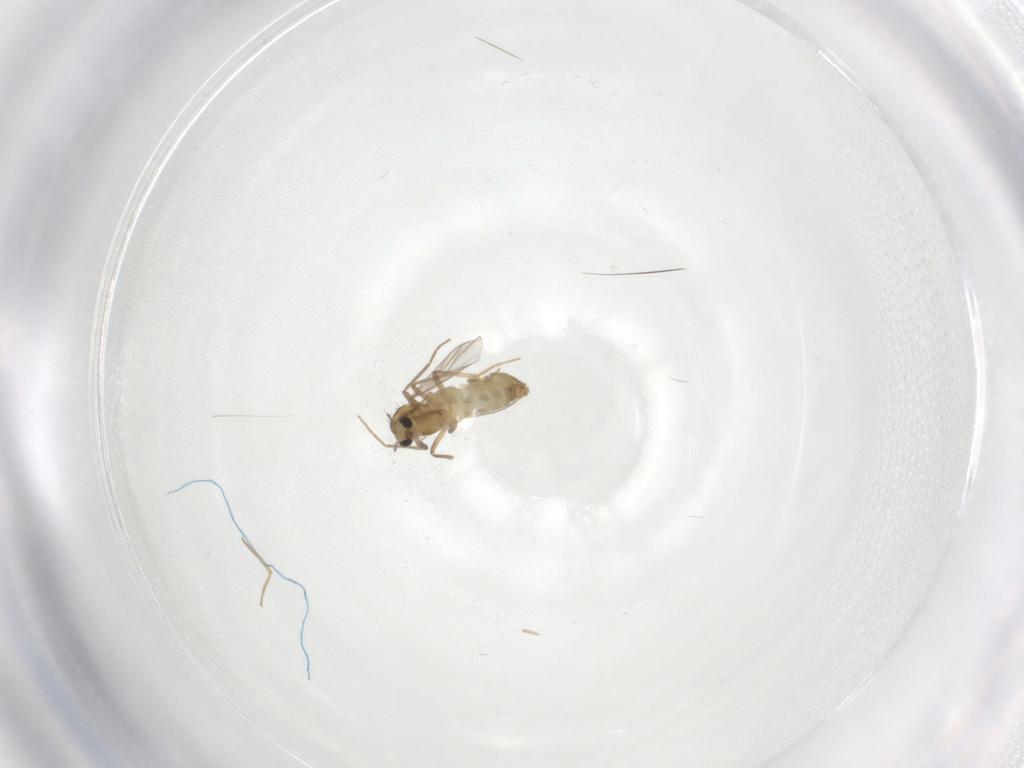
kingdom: Animalia
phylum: Arthropoda
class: Insecta
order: Diptera
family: Chironomidae
